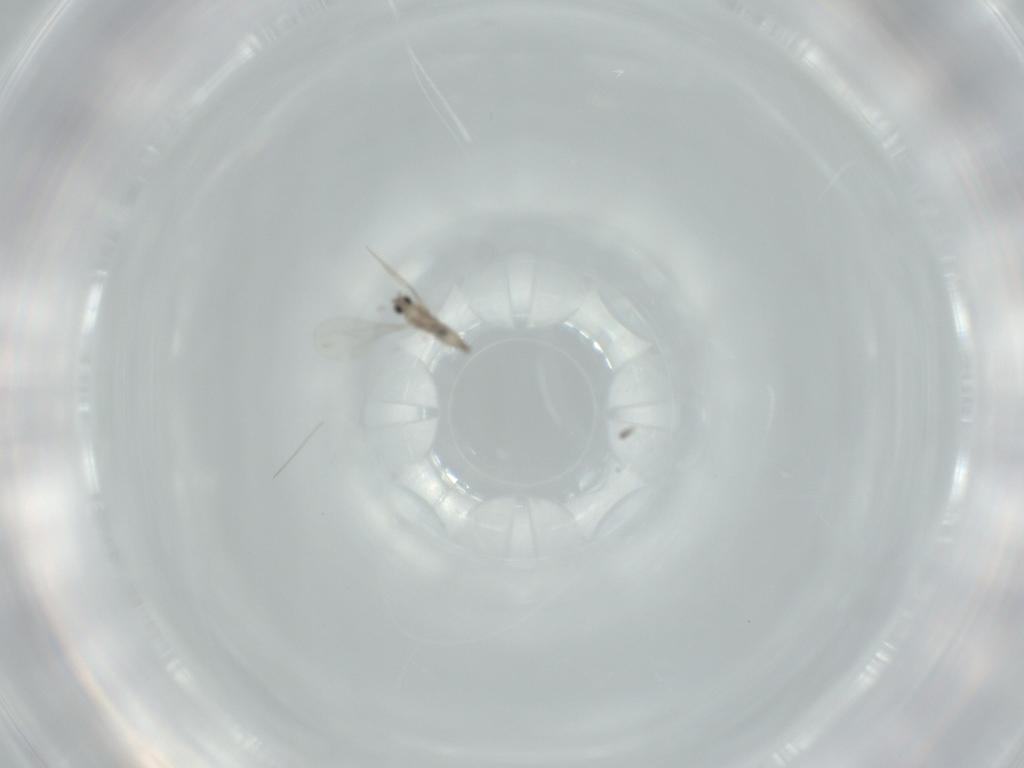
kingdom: Animalia
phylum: Arthropoda
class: Insecta
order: Diptera
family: Cecidomyiidae
